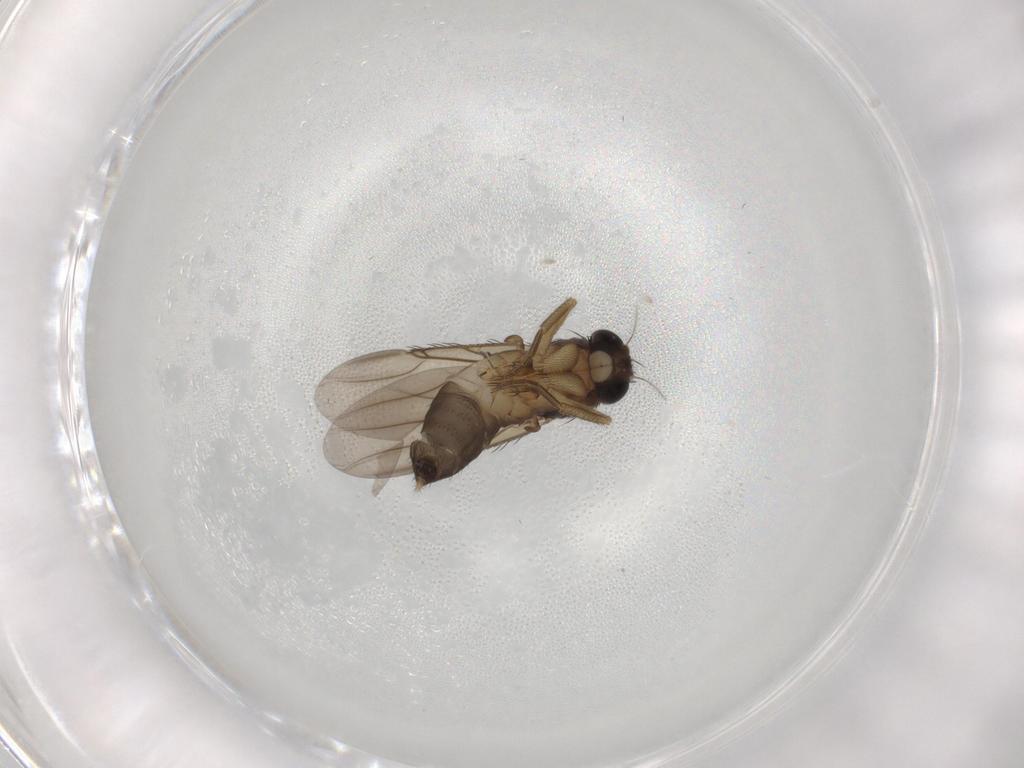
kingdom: Animalia
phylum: Arthropoda
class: Insecta
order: Diptera
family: Phoridae
